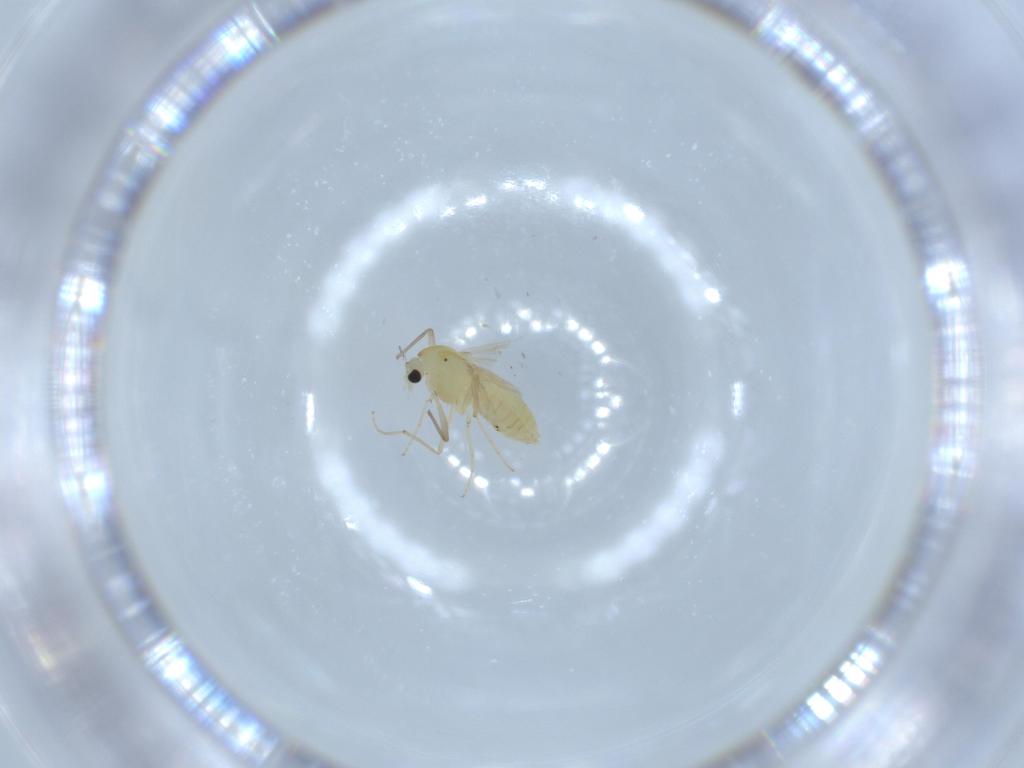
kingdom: Animalia
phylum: Arthropoda
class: Insecta
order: Diptera
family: Chironomidae
